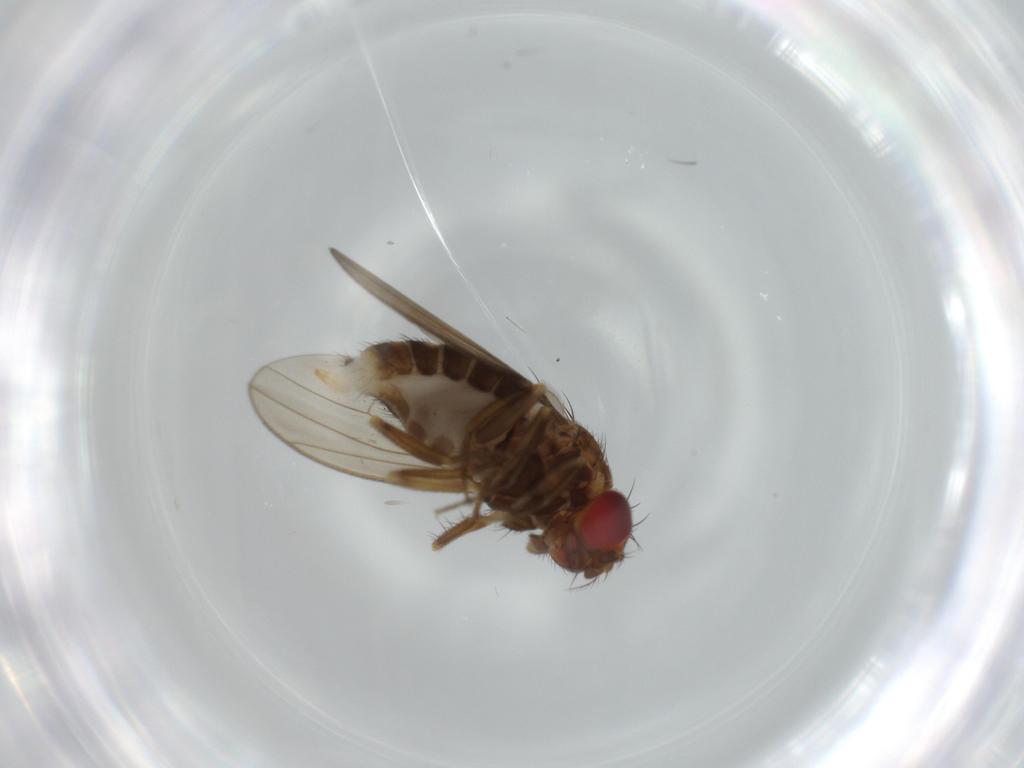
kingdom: Animalia
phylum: Arthropoda
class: Insecta
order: Diptera
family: Sciaridae
